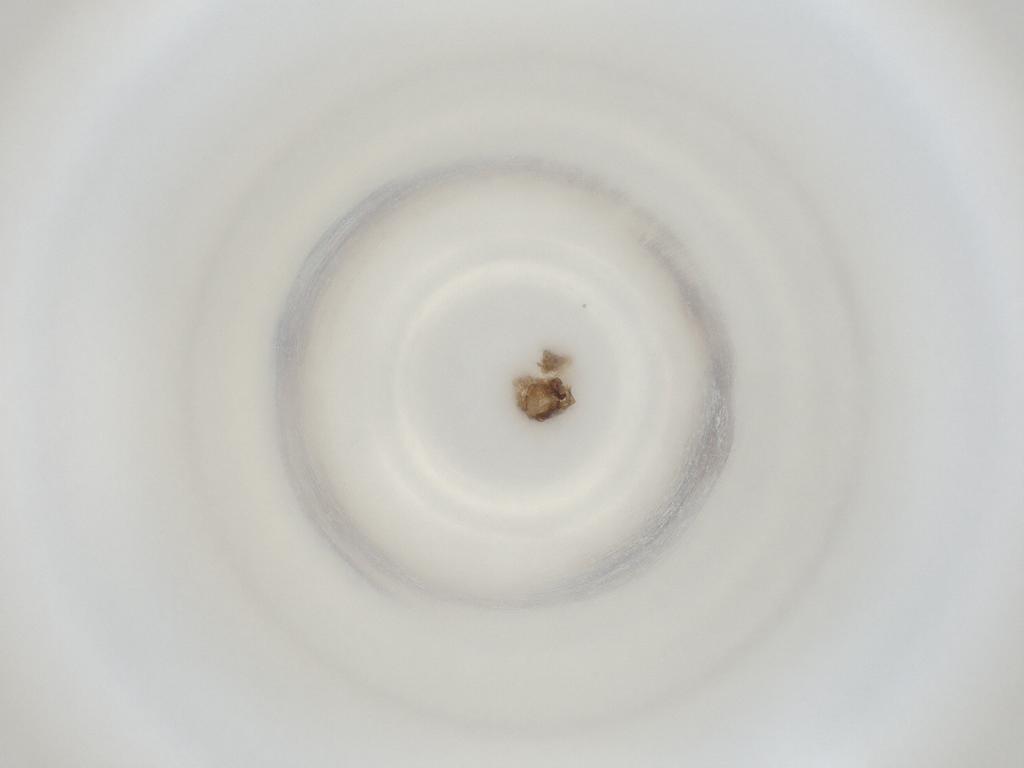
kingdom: Animalia
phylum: Arthropoda
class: Insecta
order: Diptera
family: Cecidomyiidae
